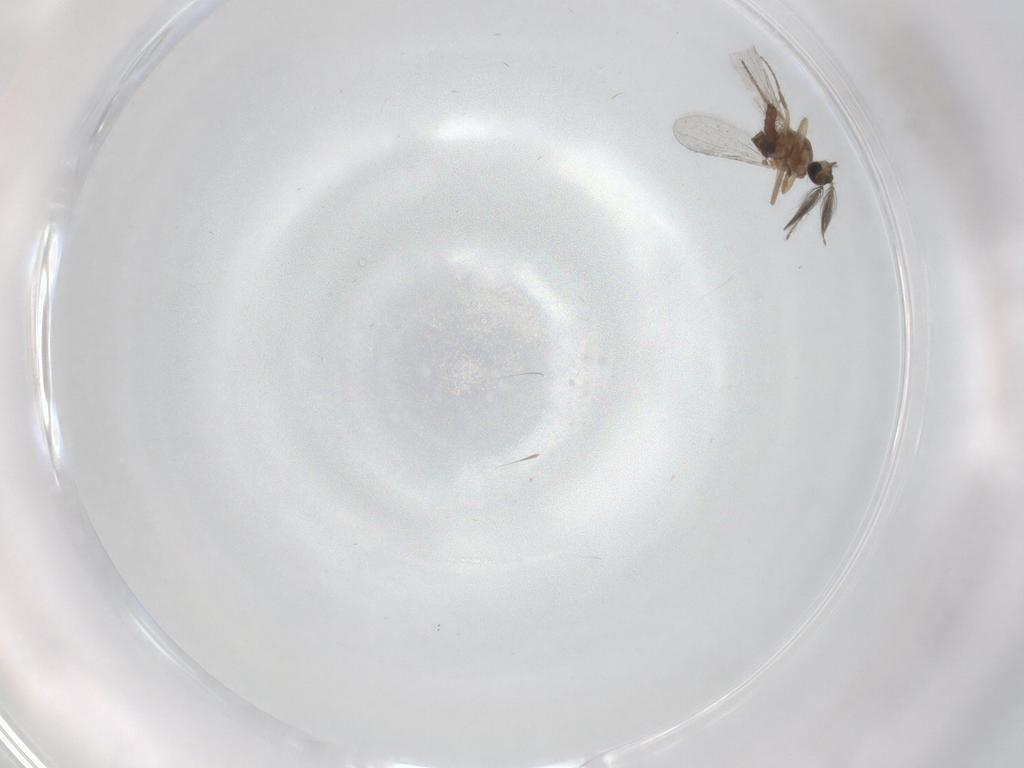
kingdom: Animalia
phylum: Arthropoda
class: Insecta
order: Diptera
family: Ceratopogonidae
